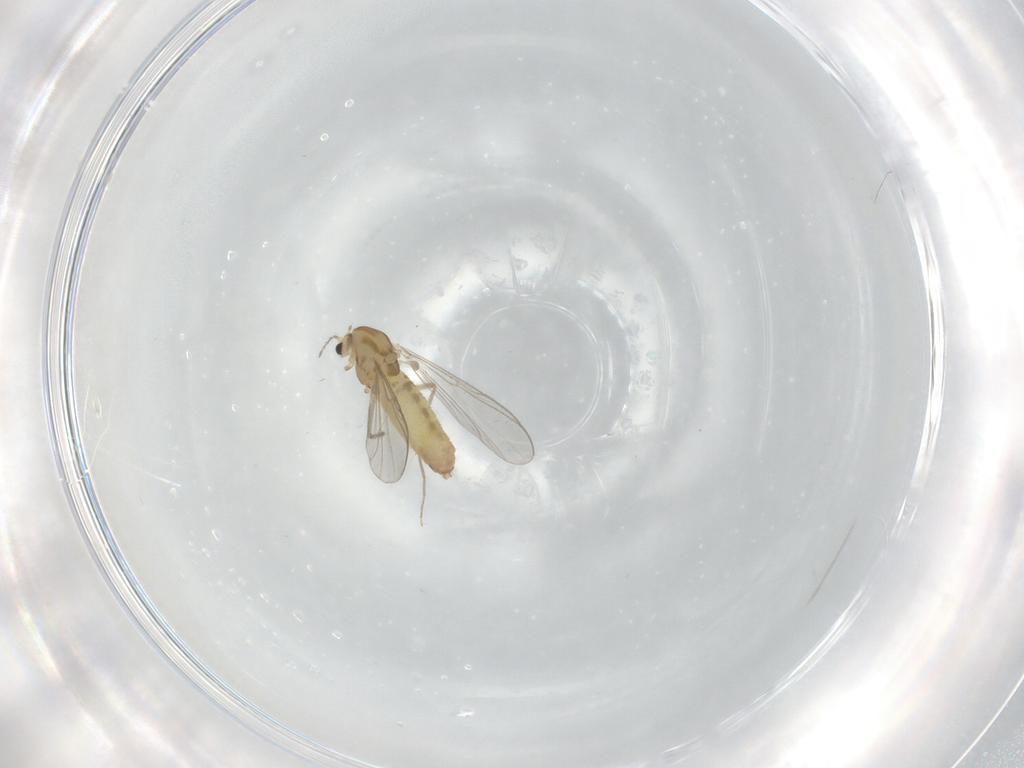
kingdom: Animalia
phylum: Arthropoda
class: Insecta
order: Diptera
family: Chironomidae
